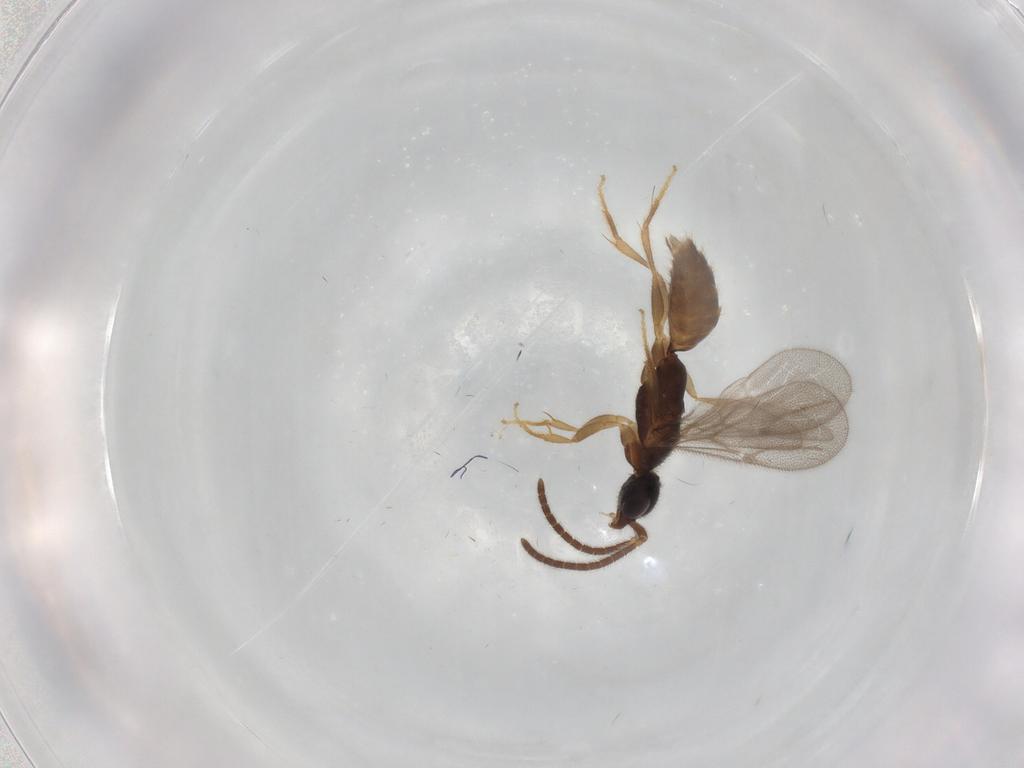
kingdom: Animalia
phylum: Arthropoda
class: Insecta
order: Hymenoptera
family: Bethylidae
